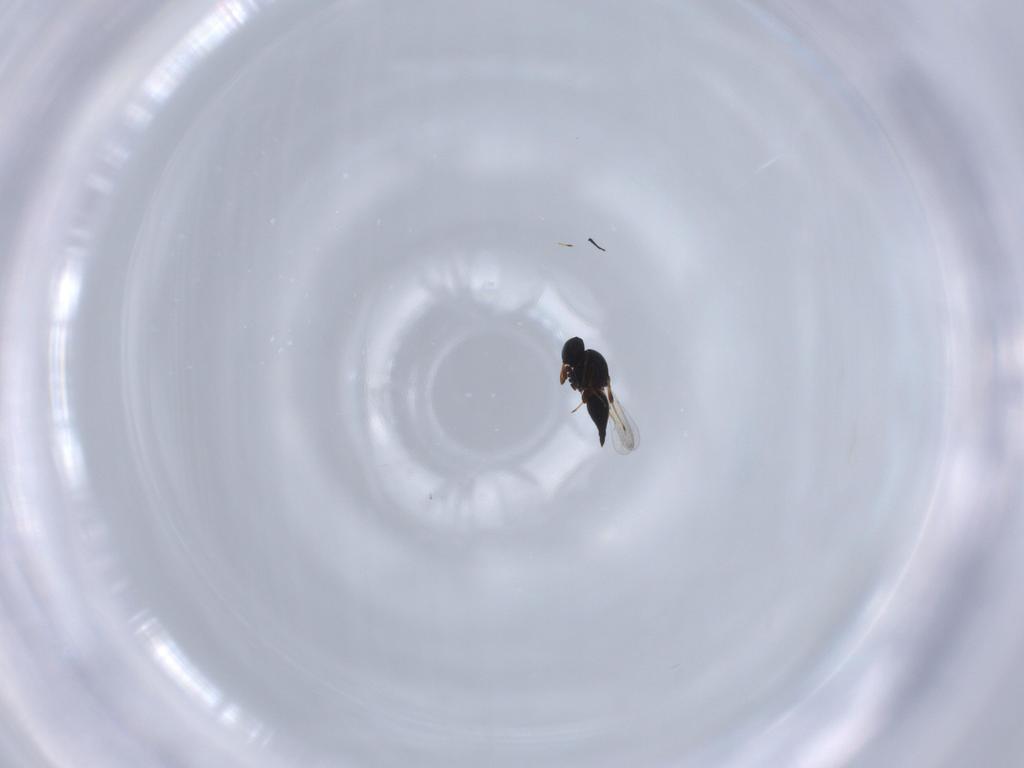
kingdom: Animalia
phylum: Arthropoda
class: Insecta
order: Hymenoptera
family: Platygastridae
